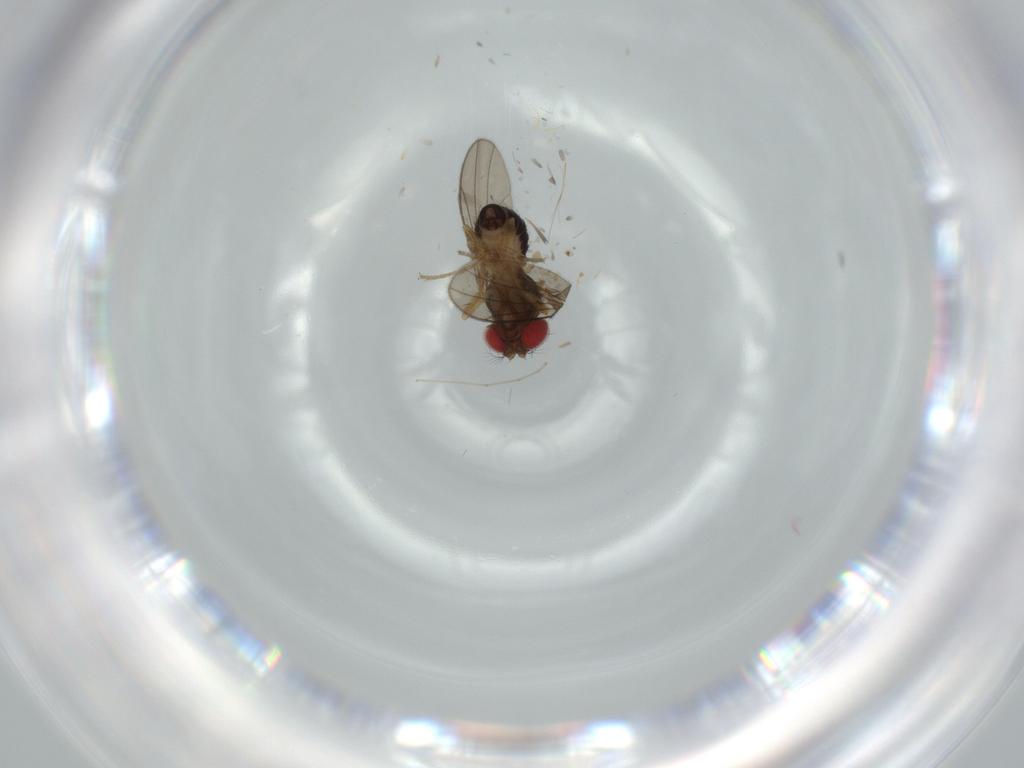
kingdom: Animalia
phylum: Arthropoda
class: Insecta
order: Diptera
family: Drosophilidae
